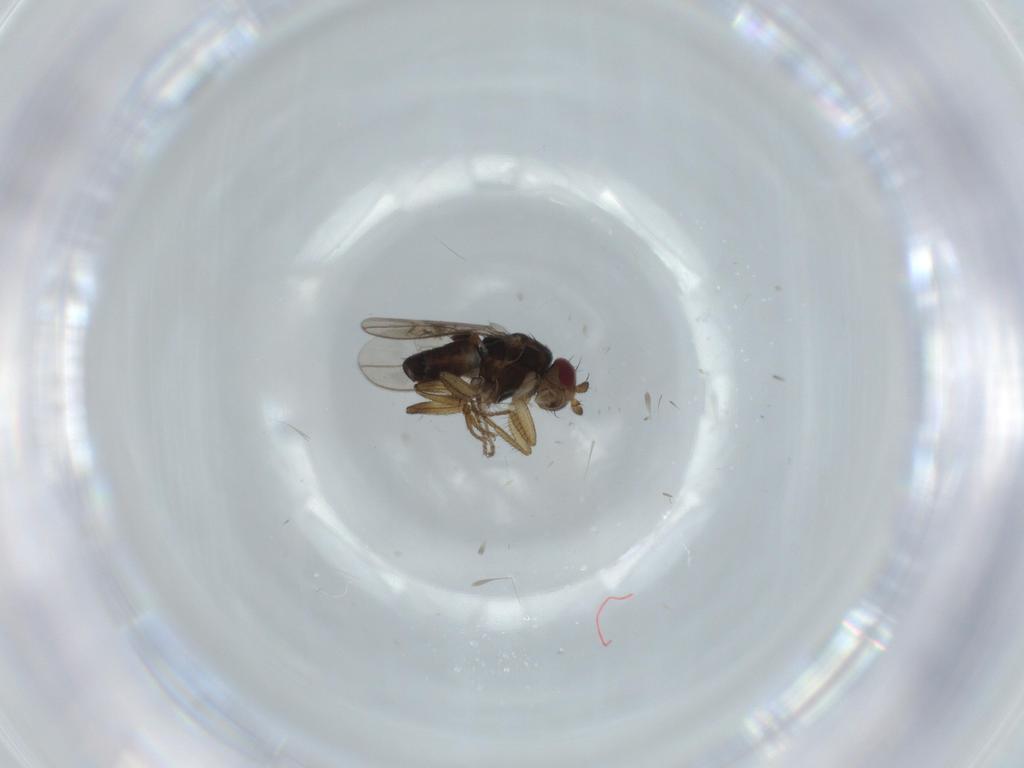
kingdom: Animalia
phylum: Arthropoda
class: Insecta
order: Diptera
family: Sphaeroceridae
